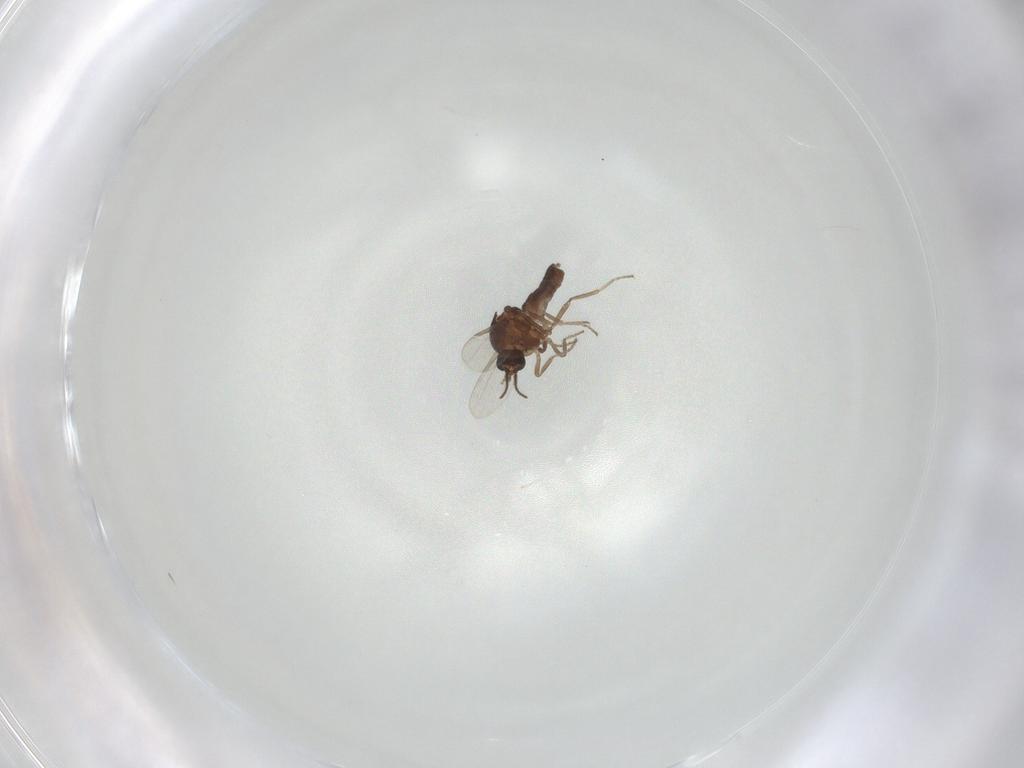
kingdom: Animalia
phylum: Arthropoda
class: Insecta
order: Diptera
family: Ceratopogonidae
